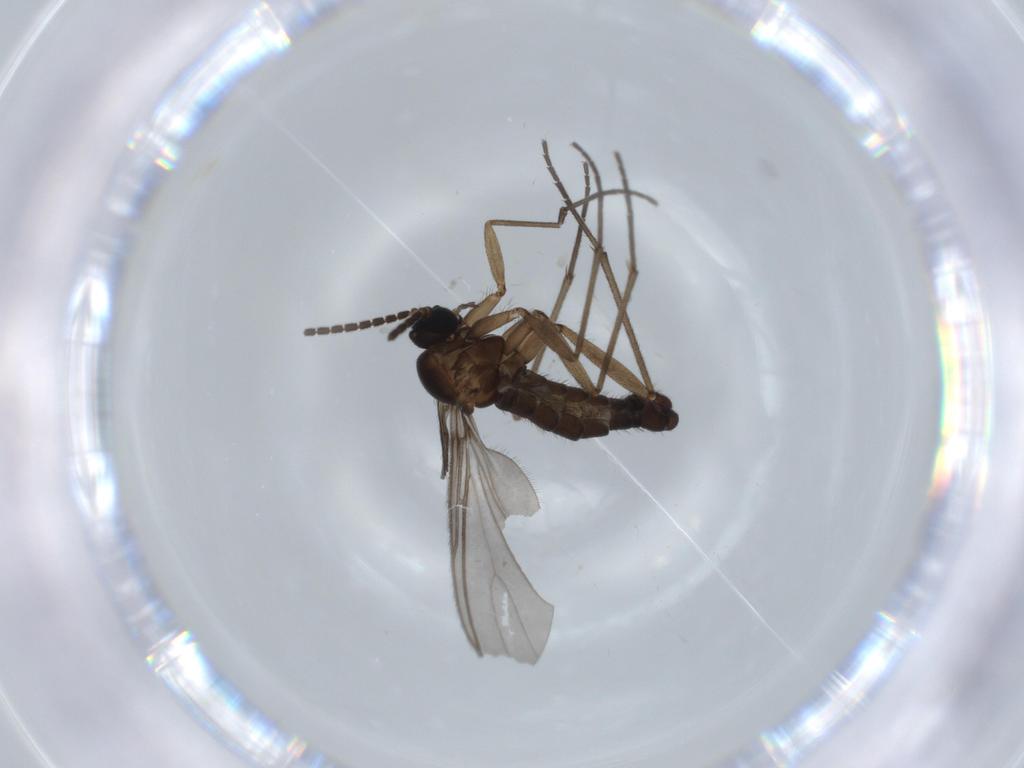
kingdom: Animalia
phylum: Arthropoda
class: Insecta
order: Diptera
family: Sciaridae
